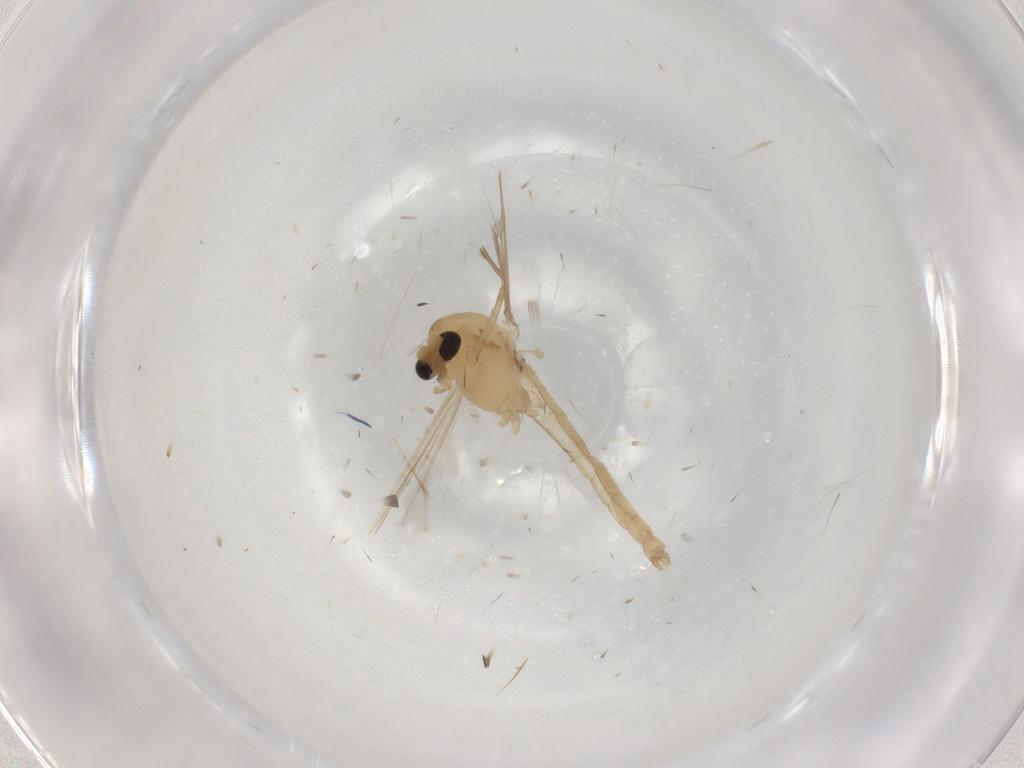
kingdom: Animalia
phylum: Arthropoda
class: Insecta
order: Diptera
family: Chironomidae
